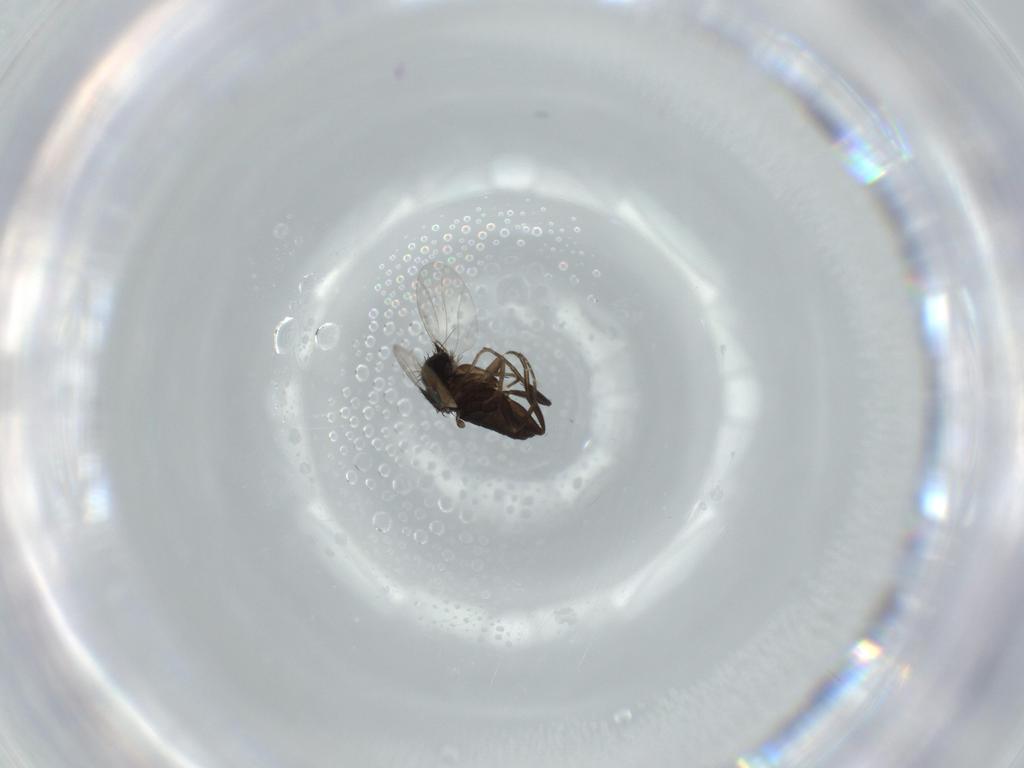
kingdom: Animalia
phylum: Arthropoda
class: Insecta
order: Diptera
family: Phoridae
